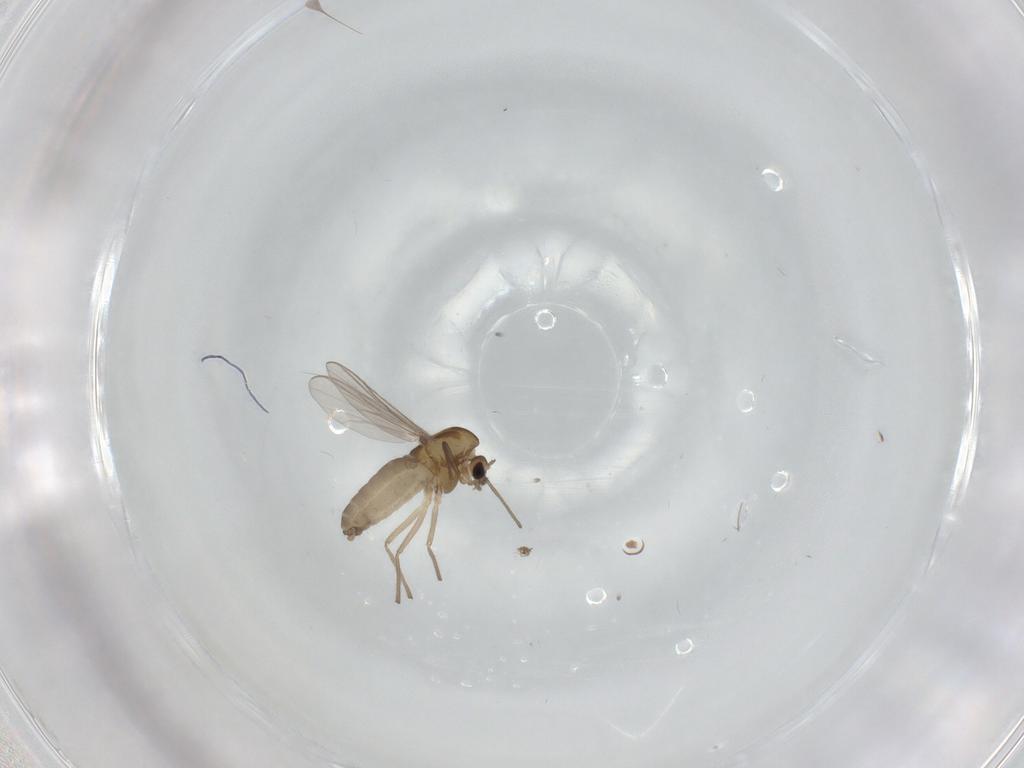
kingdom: Animalia
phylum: Arthropoda
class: Insecta
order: Diptera
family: Chironomidae
